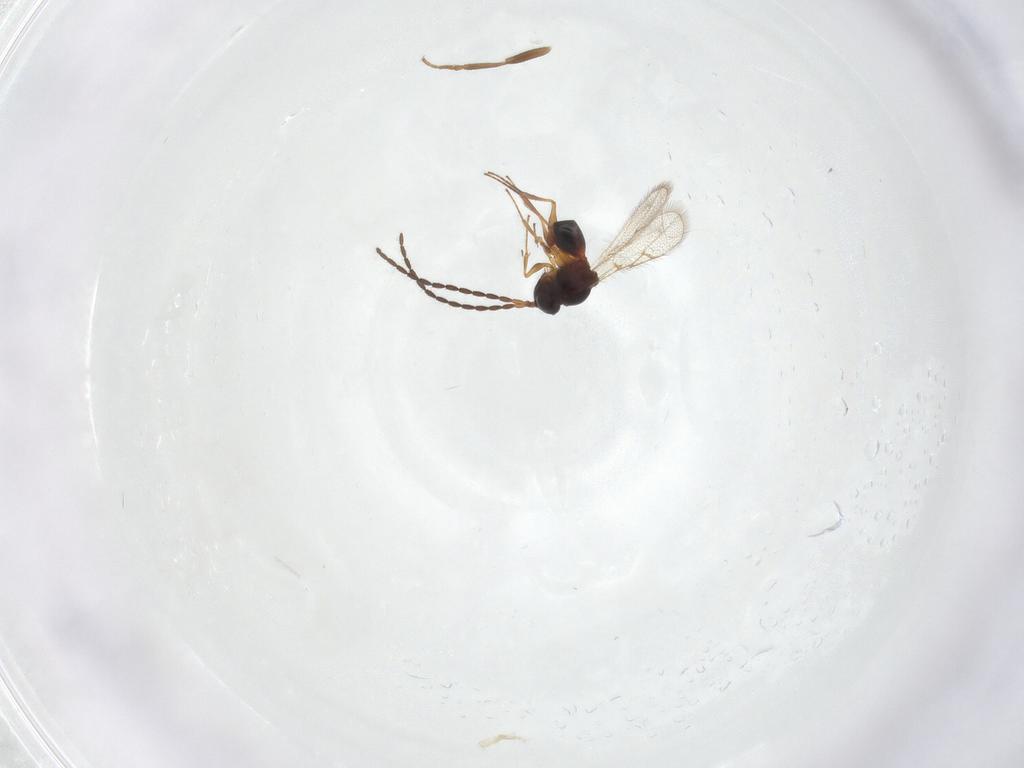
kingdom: Animalia
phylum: Arthropoda
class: Insecta
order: Hymenoptera
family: Figitidae
